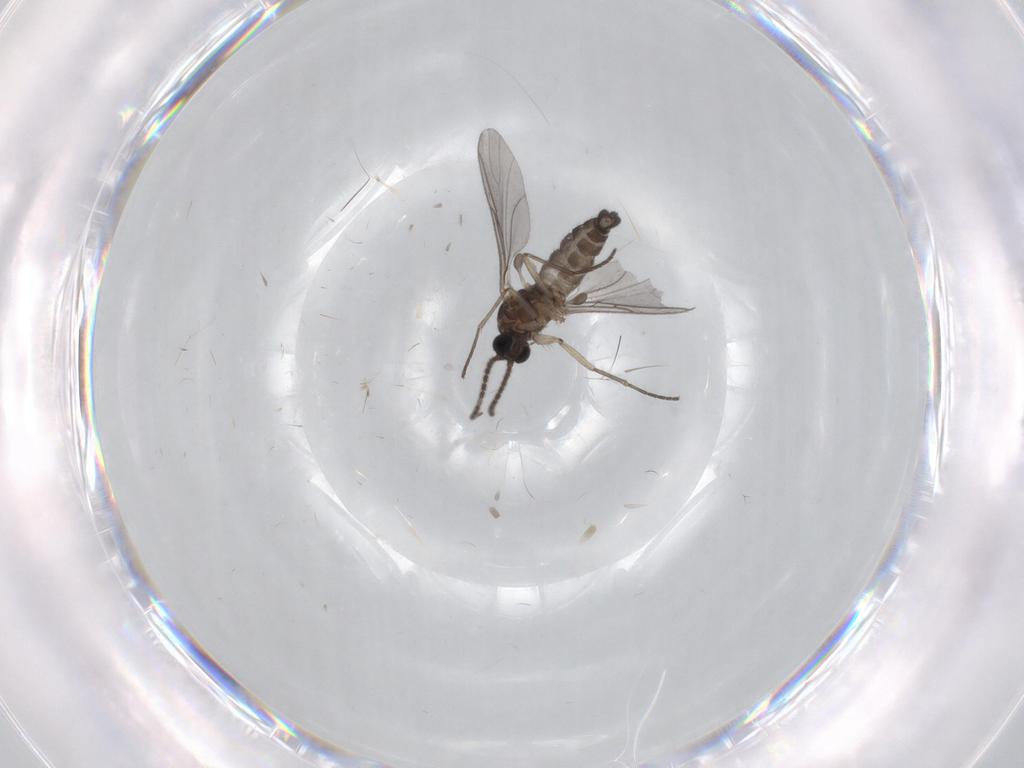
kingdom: Animalia
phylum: Arthropoda
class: Insecta
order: Diptera
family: Sciaridae
